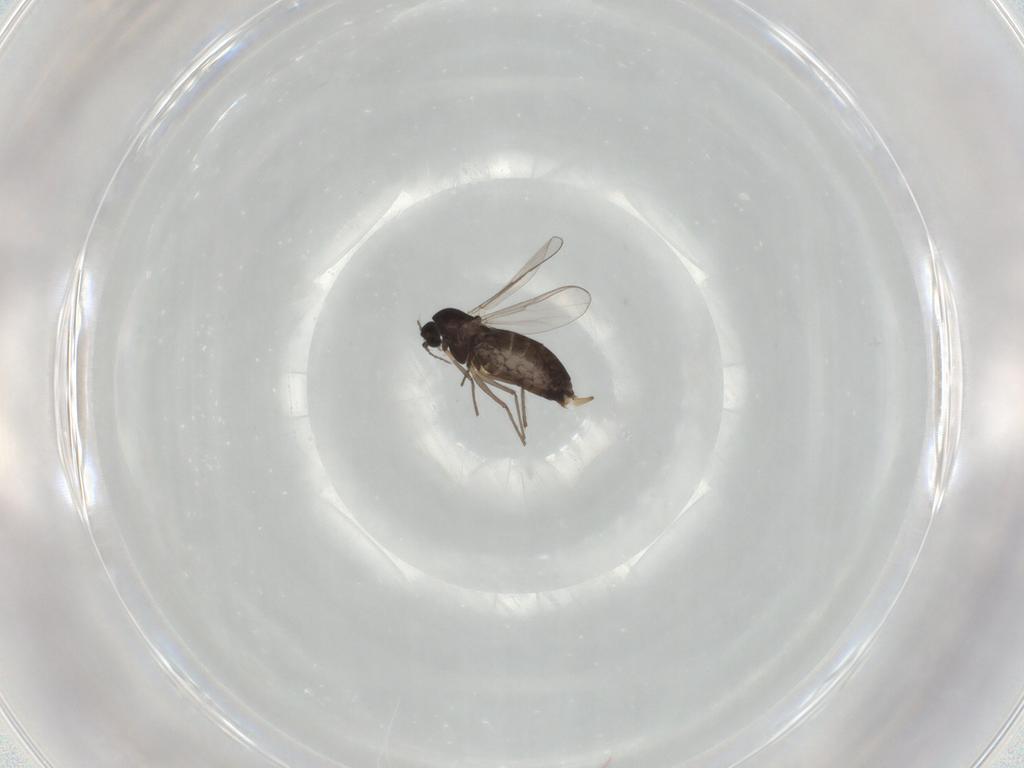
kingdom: Animalia
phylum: Arthropoda
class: Insecta
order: Diptera
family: Chironomidae
